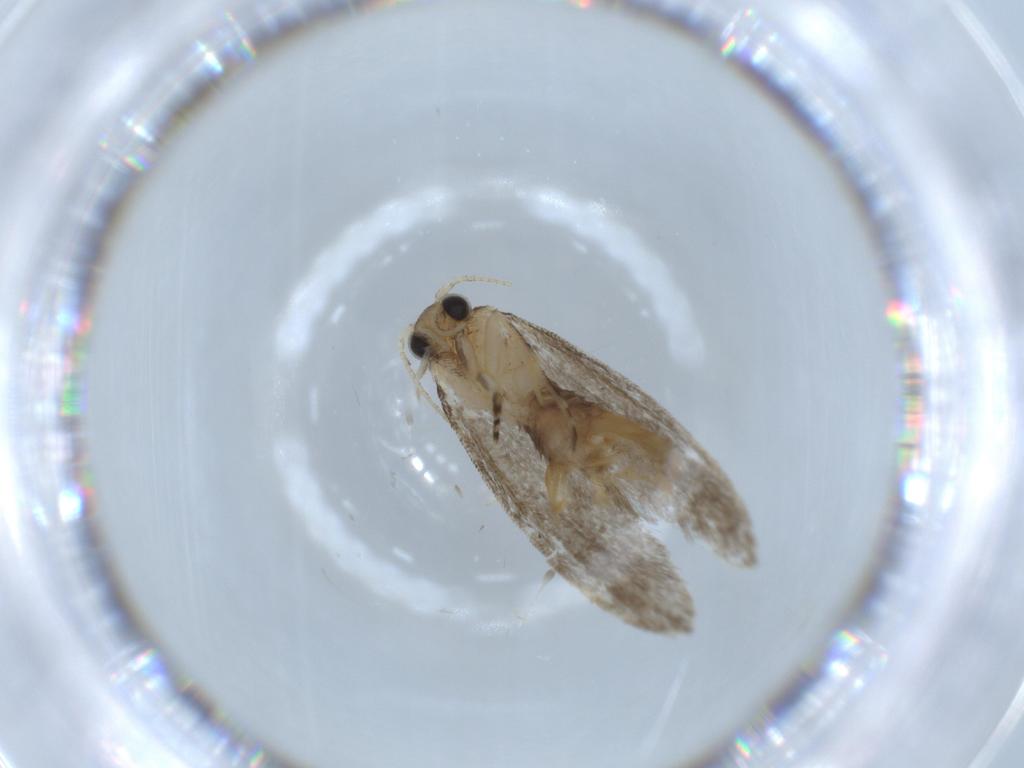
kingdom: Animalia
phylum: Arthropoda
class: Insecta
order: Lepidoptera
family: Tineidae
